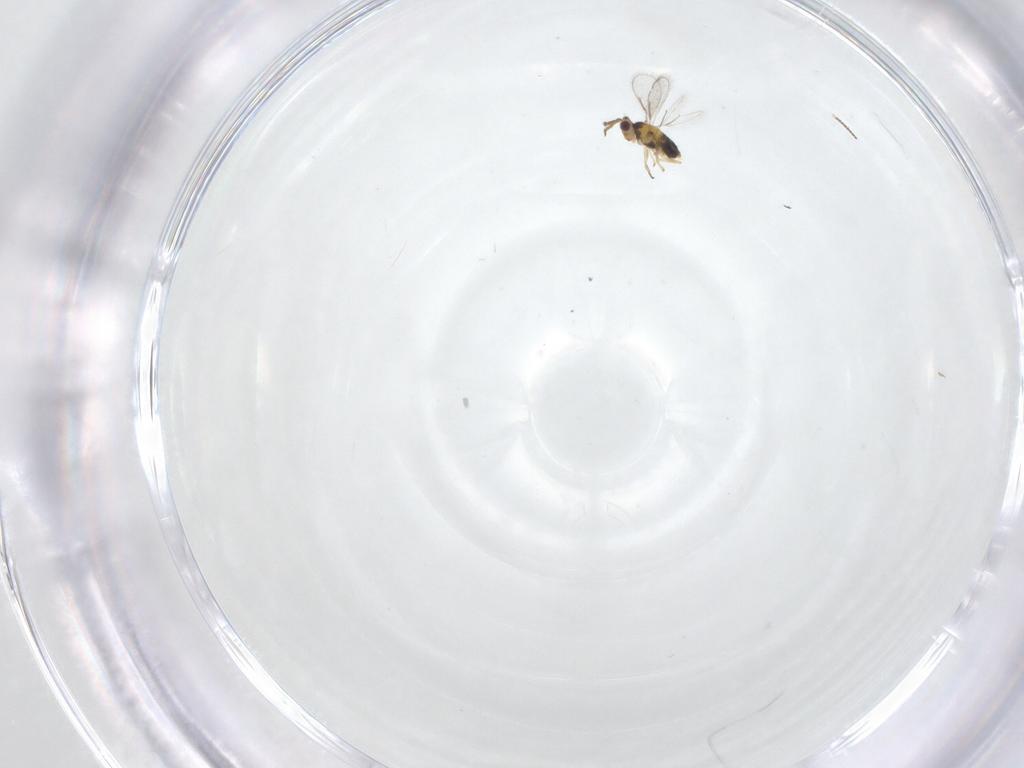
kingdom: Animalia
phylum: Arthropoda
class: Insecta
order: Hymenoptera
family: Aphelinidae
